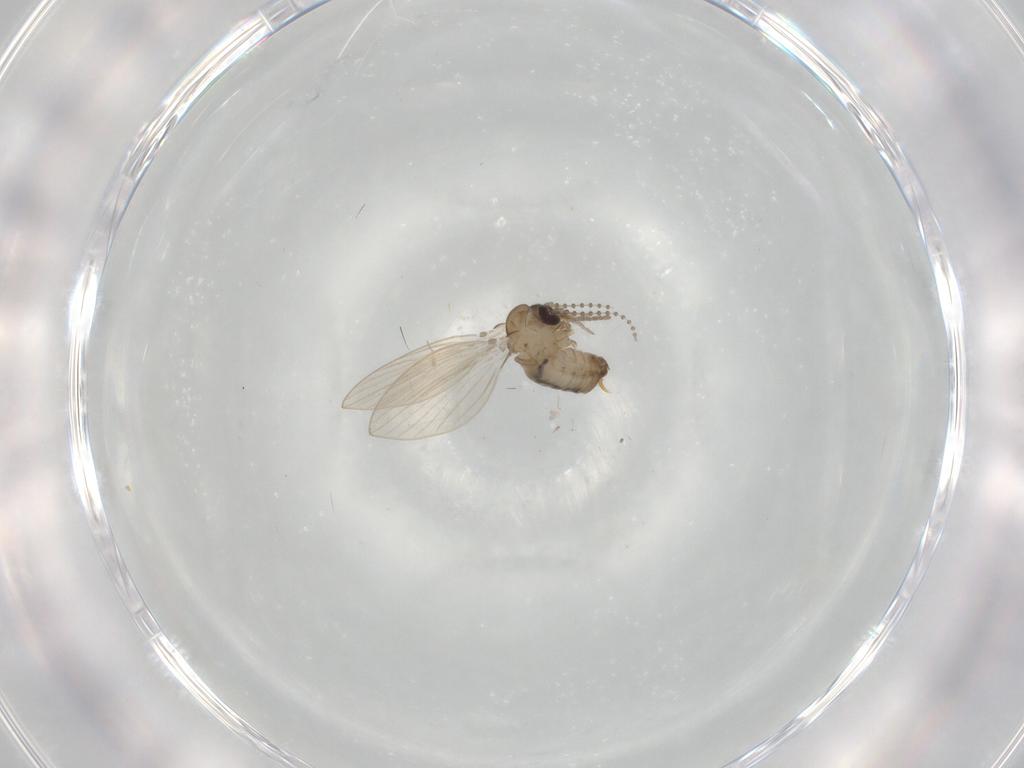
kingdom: Animalia
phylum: Arthropoda
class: Insecta
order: Diptera
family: Psychodidae
